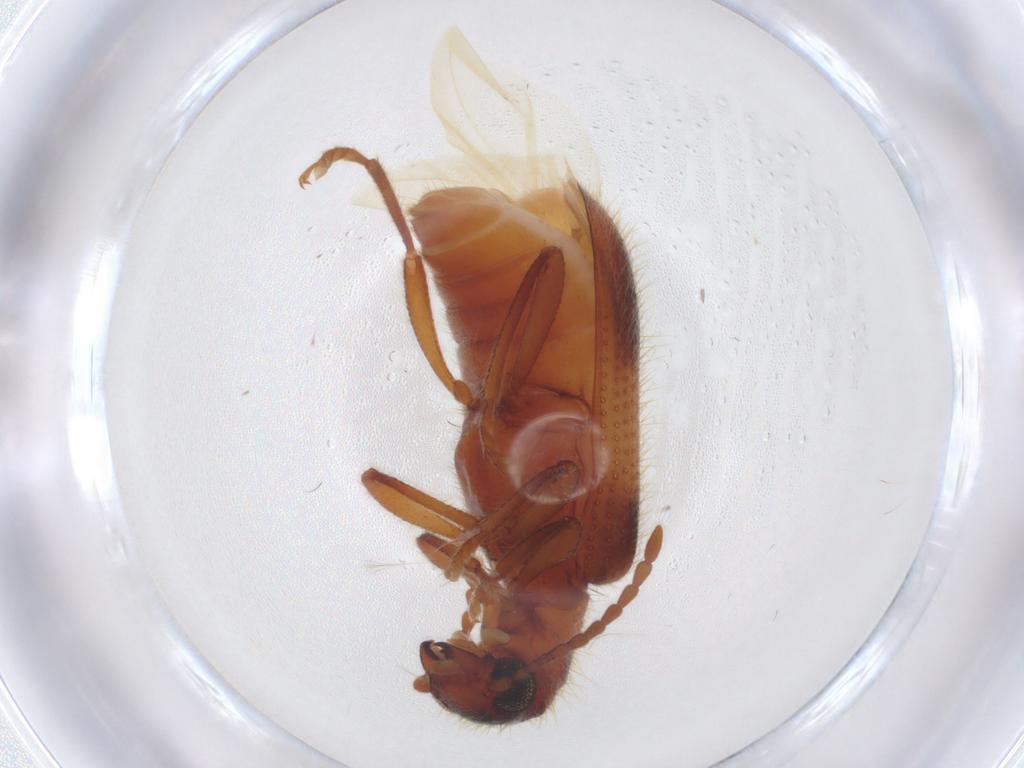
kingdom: Animalia
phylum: Arthropoda
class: Insecta
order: Coleoptera
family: Cleridae
